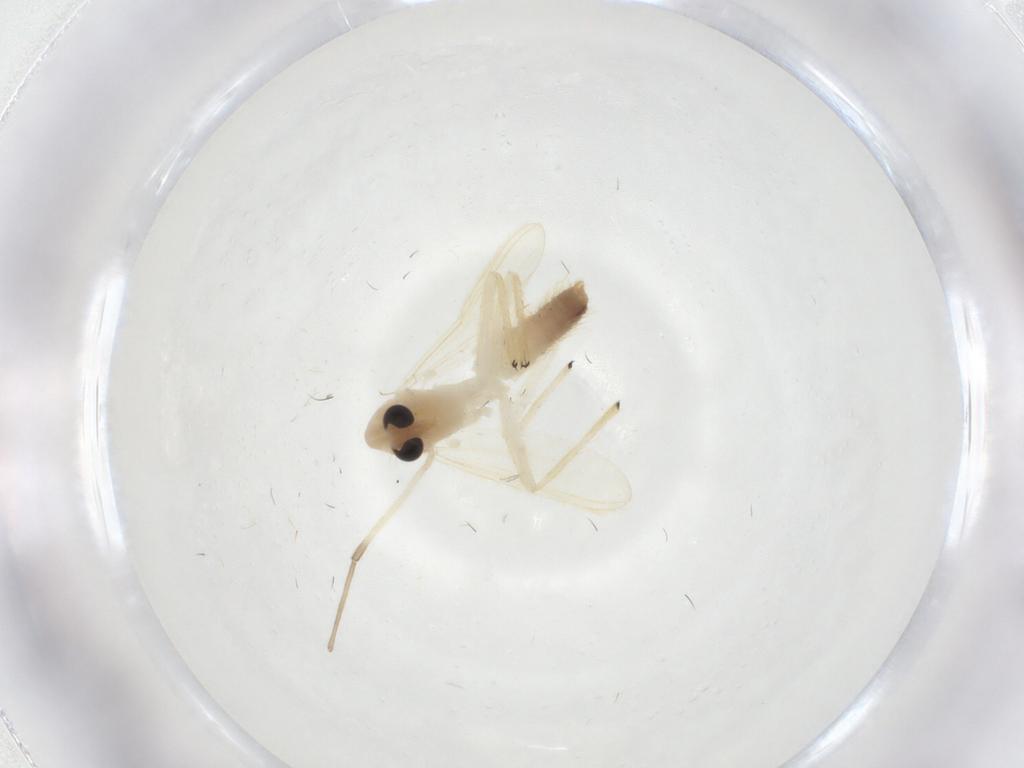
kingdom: Animalia
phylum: Arthropoda
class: Insecta
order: Diptera
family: Chironomidae
